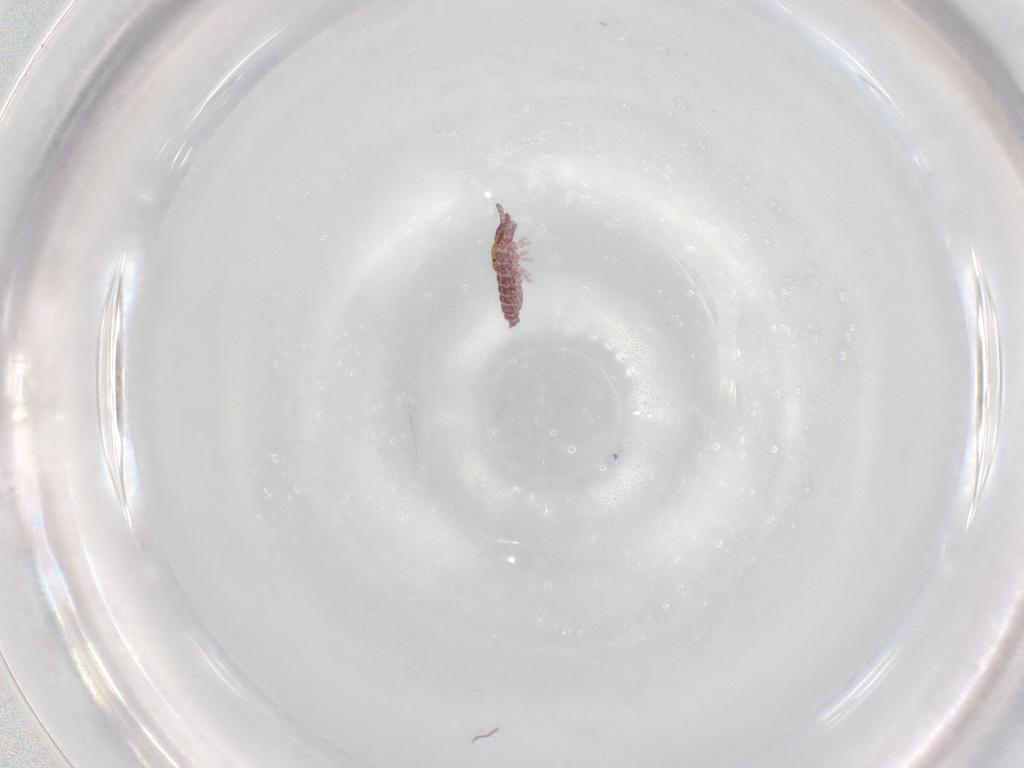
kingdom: Animalia
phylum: Arthropoda
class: Collembola
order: Poduromorpha
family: Hypogastruridae
